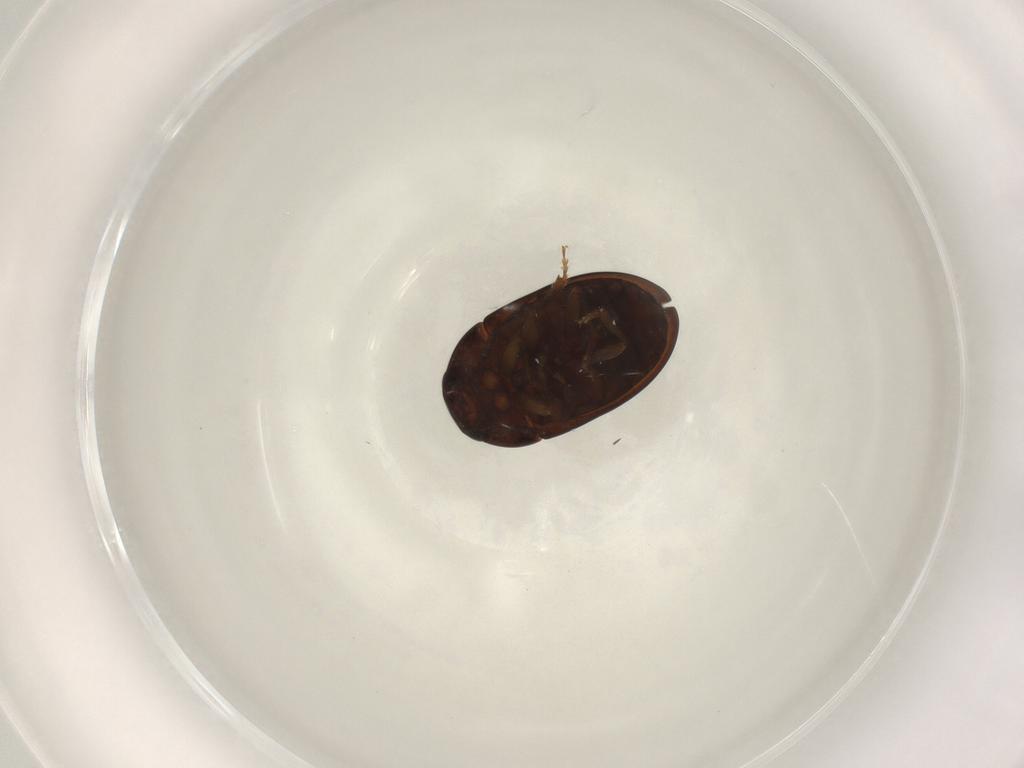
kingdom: Animalia
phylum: Arthropoda
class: Insecta
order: Coleoptera
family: Phalacridae
